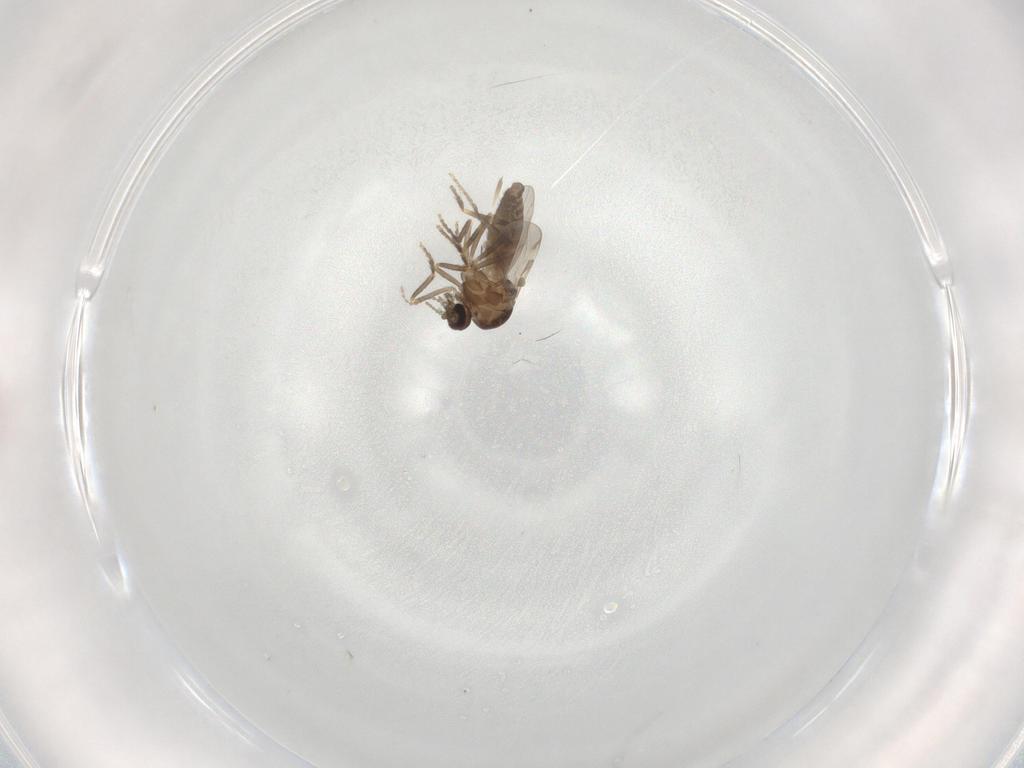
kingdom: Animalia
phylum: Arthropoda
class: Insecta
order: Diptera
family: Ceratopogonidae
